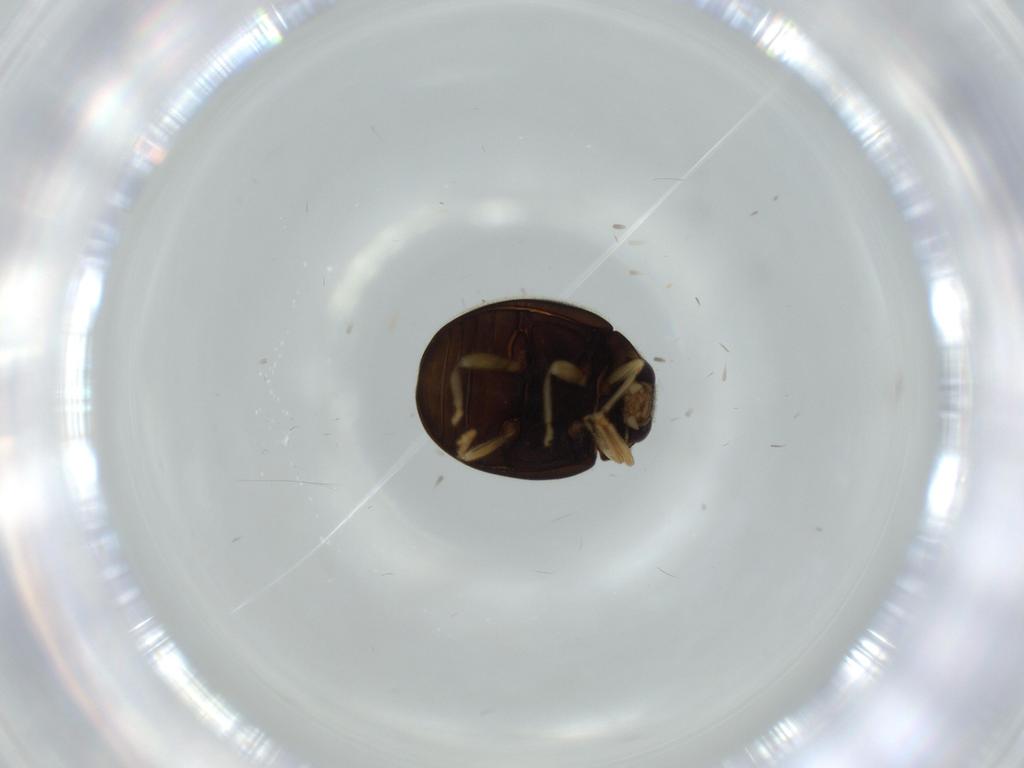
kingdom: Animalia
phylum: Arthropoda
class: Insecta
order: Coleoptera
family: Coccinellidae
